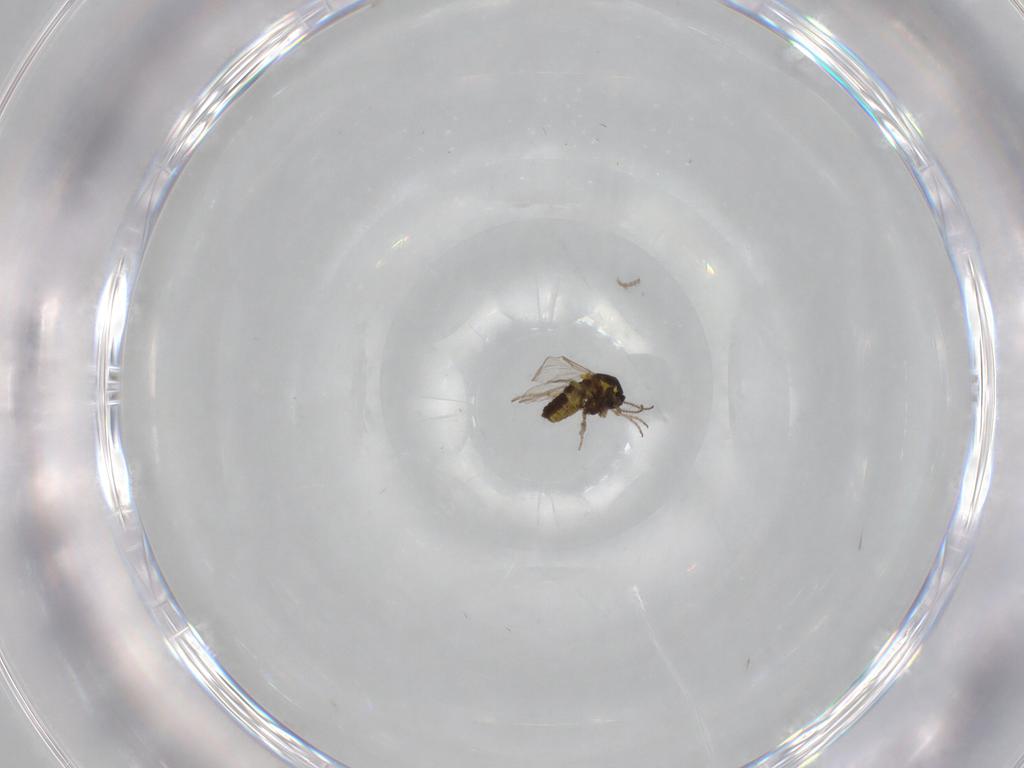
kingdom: Animalia
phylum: Arthropoda
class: Insecta
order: Diptera
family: Ceratopogonidae
